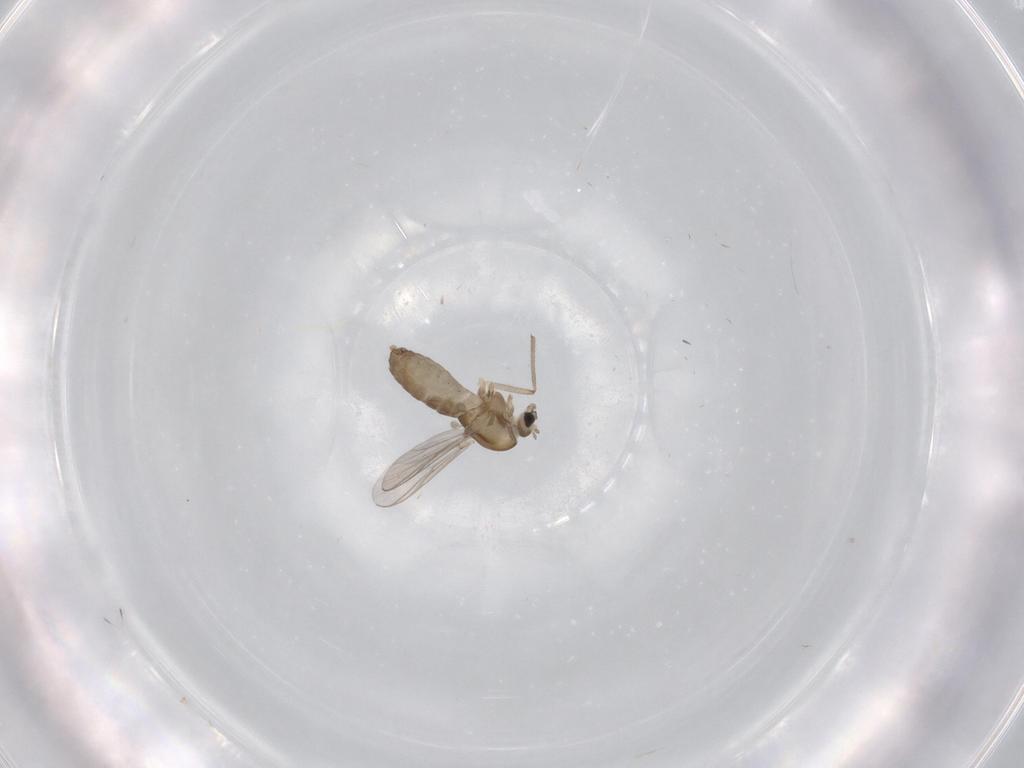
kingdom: Animalia
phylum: Arthropoda
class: Insecta
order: Diptera
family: Chironomidae
